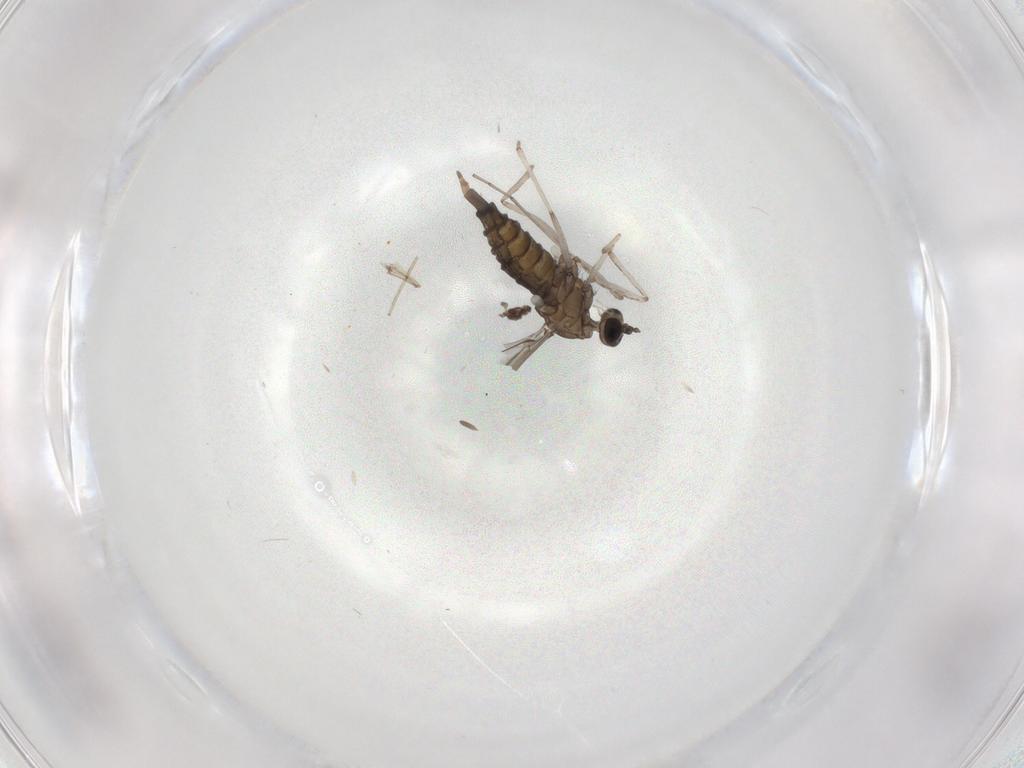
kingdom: Animalia
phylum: Arthropoda
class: Insecta
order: Diptera
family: Cecidomyiidae
